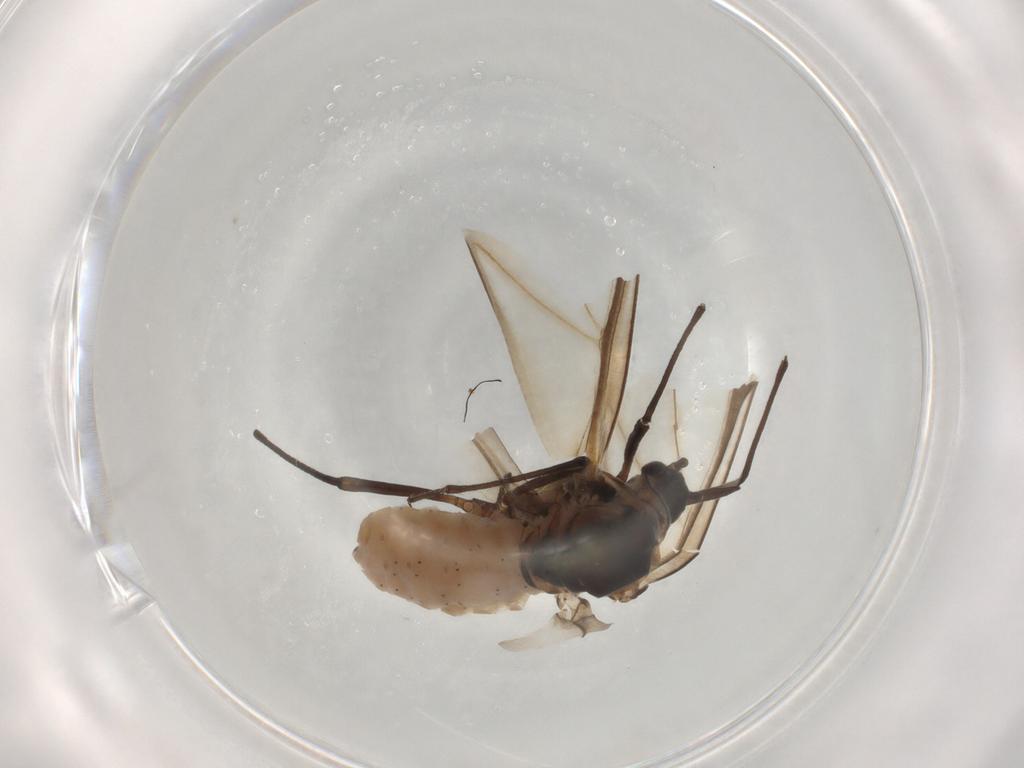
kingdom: Animalia
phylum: Arthropoda
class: Insecta
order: Hemiptera
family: Aphididae
